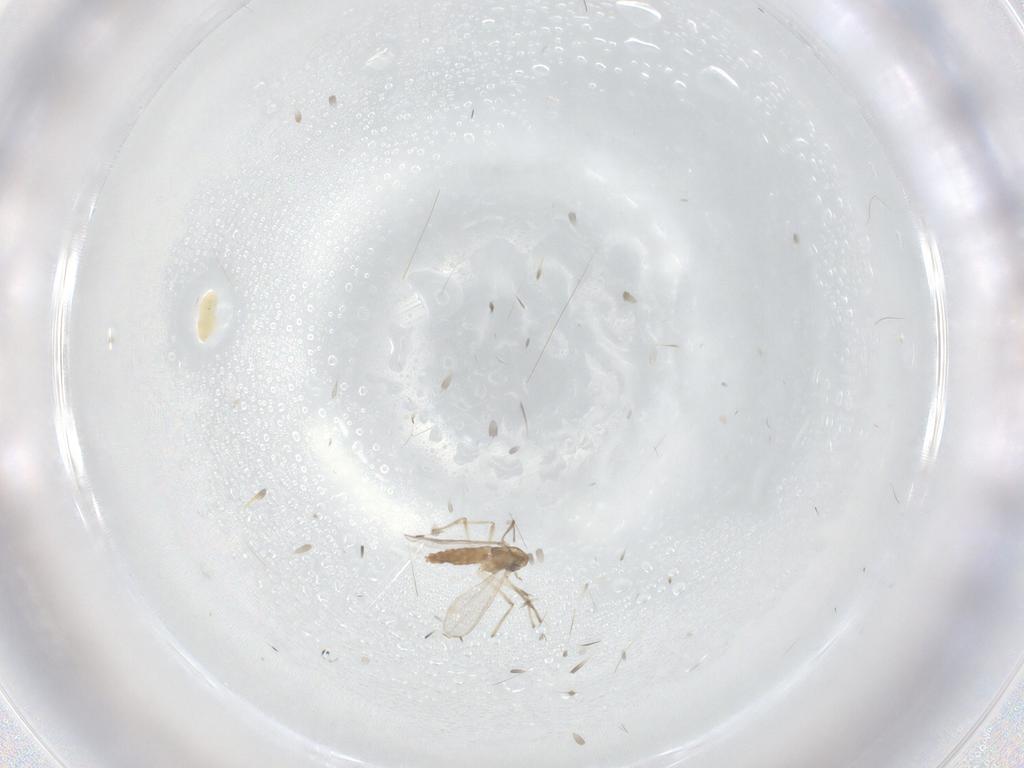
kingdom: Animalia
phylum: Arthropoda
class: Insecta
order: Diptera
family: Chironomidae
